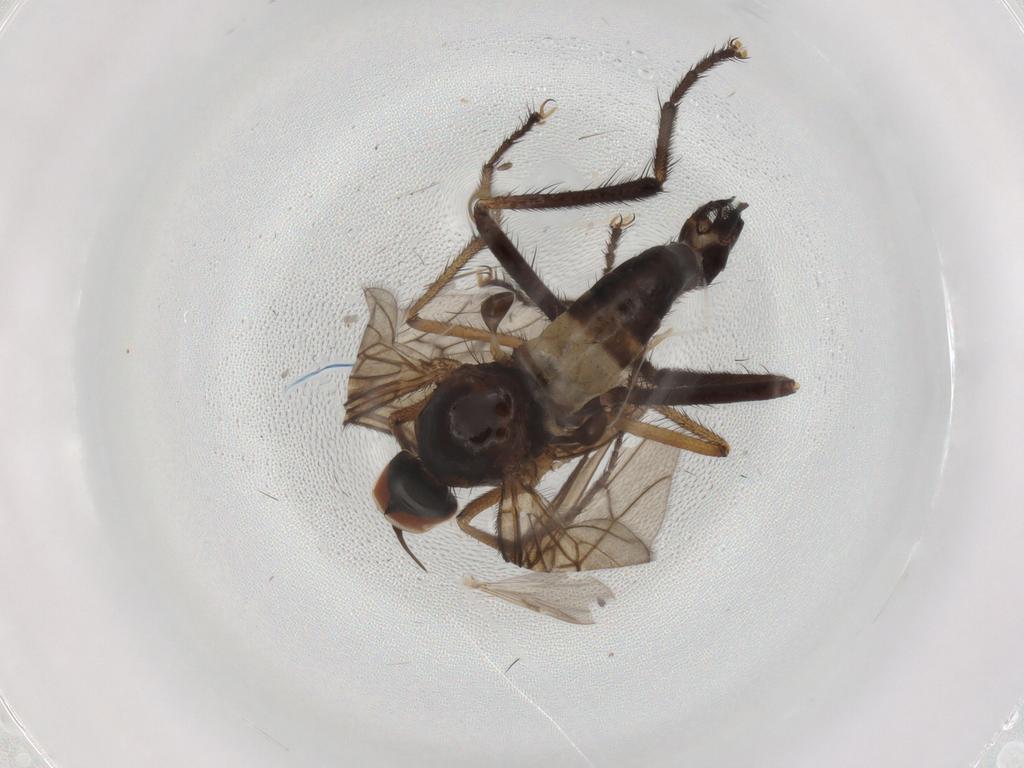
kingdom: Animalia
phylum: Arthropoda
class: Insecta
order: Diptera
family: Empididae
